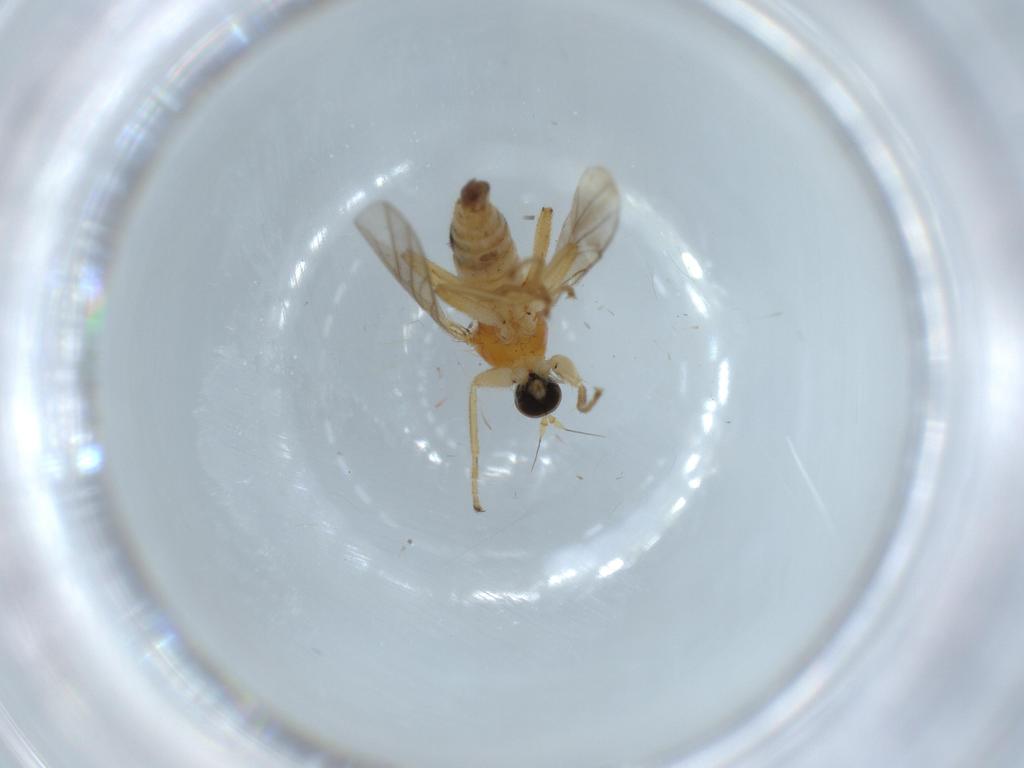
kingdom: Animalia
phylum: Arthropoda
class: Insecta
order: Diptera
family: Hybotidae
